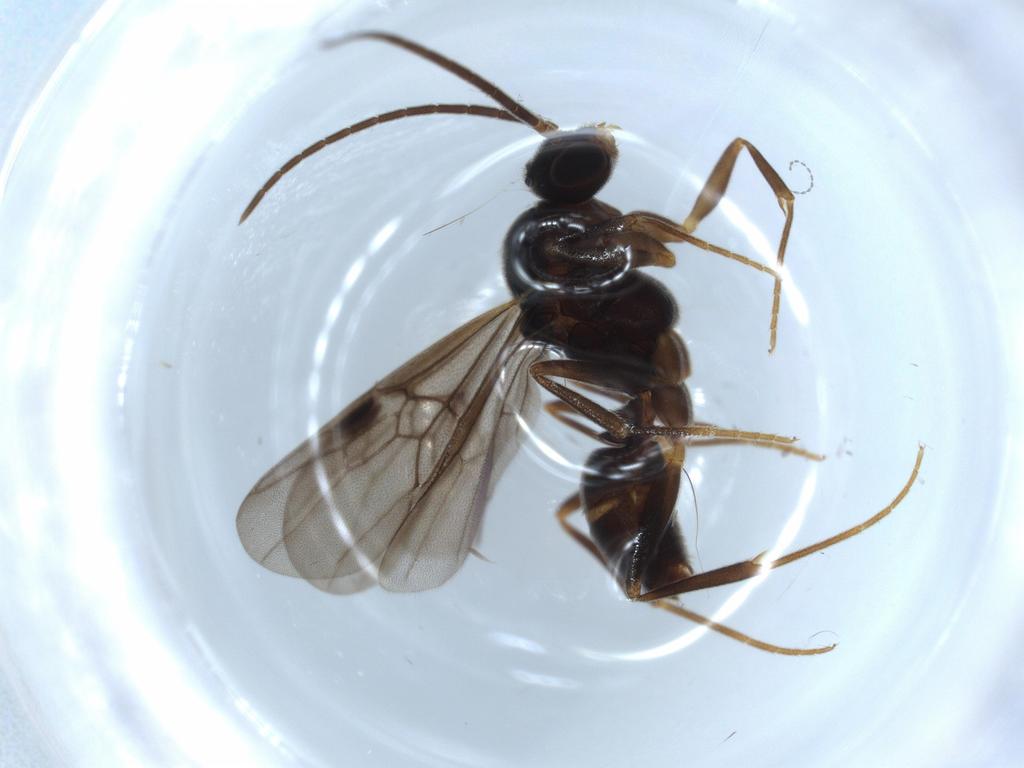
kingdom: Animalia
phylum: Arthropoda
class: Insecta
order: Hymenoptera
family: Formicidae
